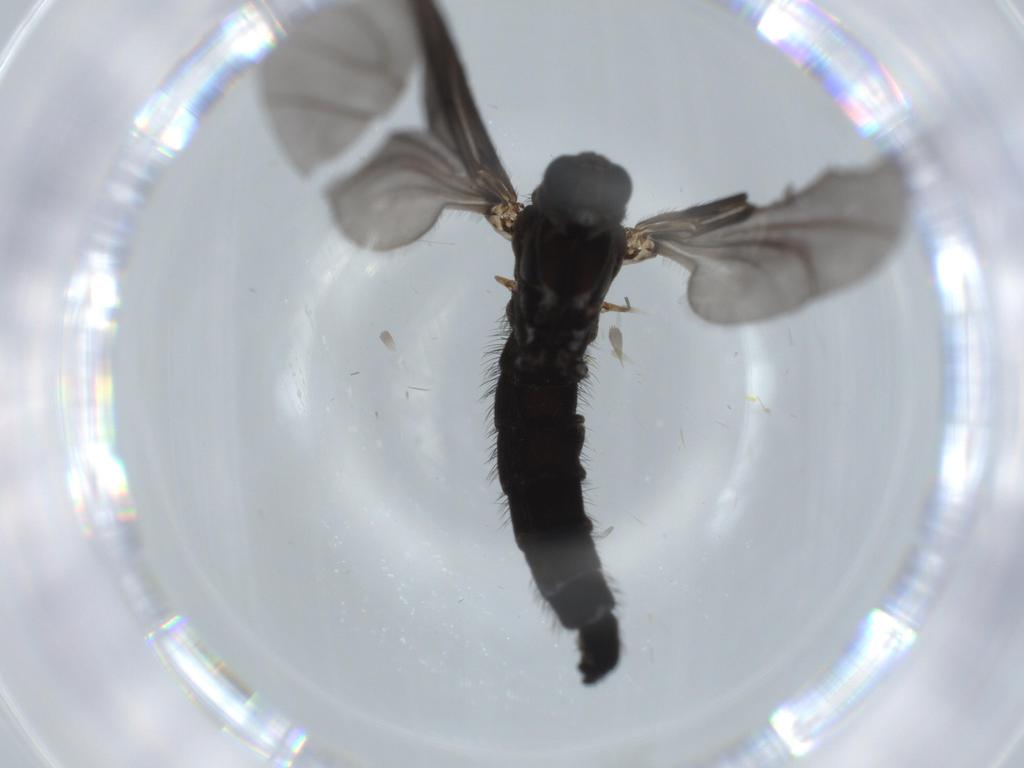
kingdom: Animalia
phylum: Arthropoda
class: Insecta
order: Diptera
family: Sciaridae
